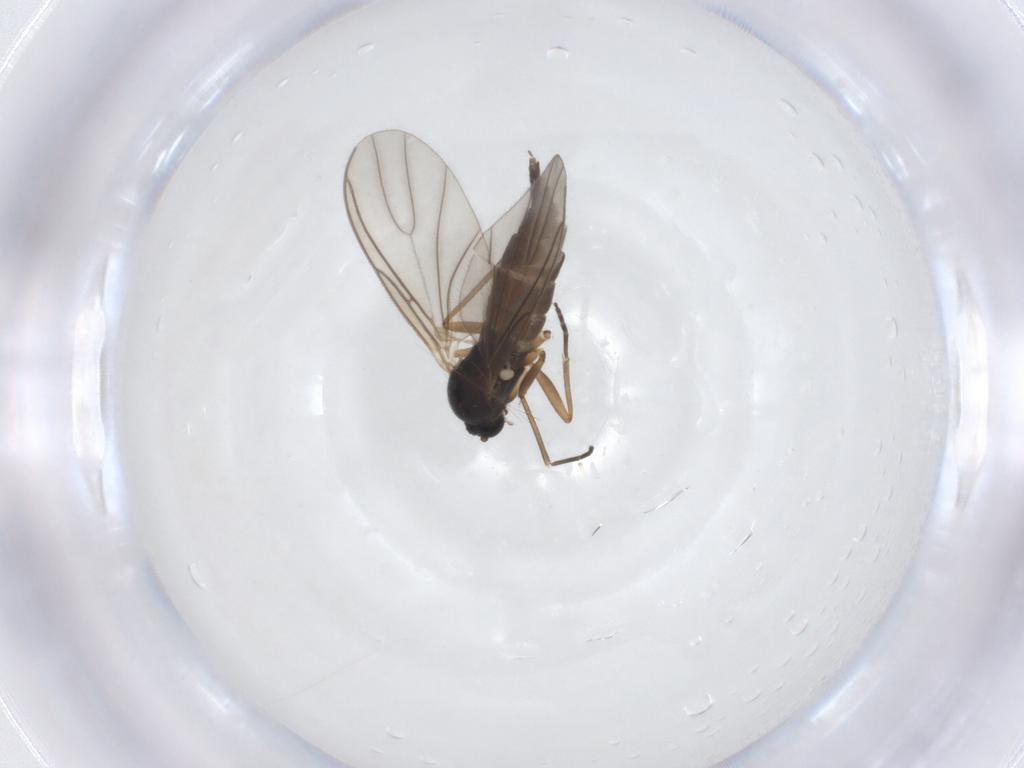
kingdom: Animalia
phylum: Arthropoda
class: Insecta
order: Diptera
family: Sciaridae
